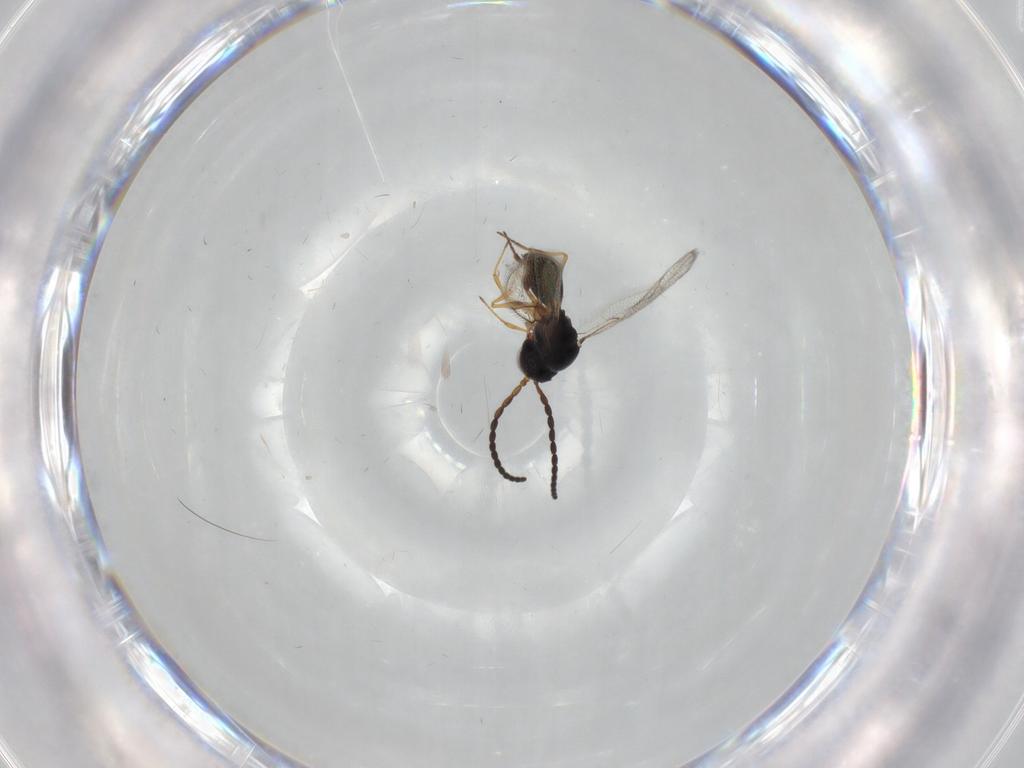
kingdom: Animalia
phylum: Arthropoda
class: Insecta
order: Hymenoptera
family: Figitidae
